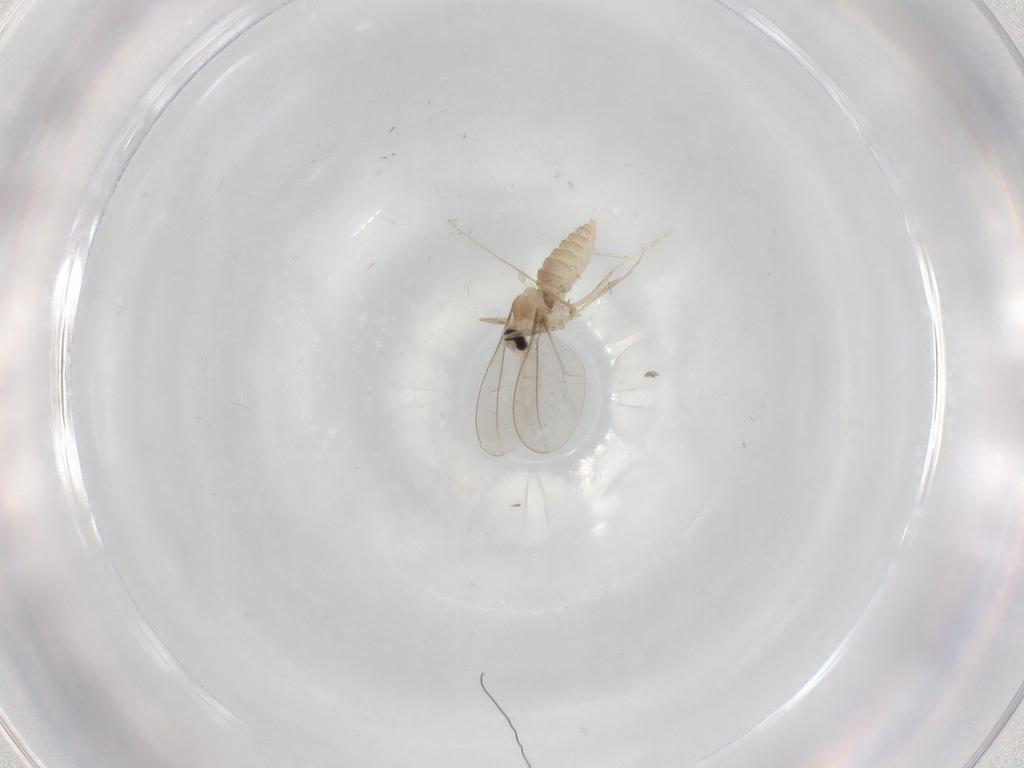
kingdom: Animalia
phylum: Arthropoda
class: Insecta
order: Diptera
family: Cecidomyiidae
